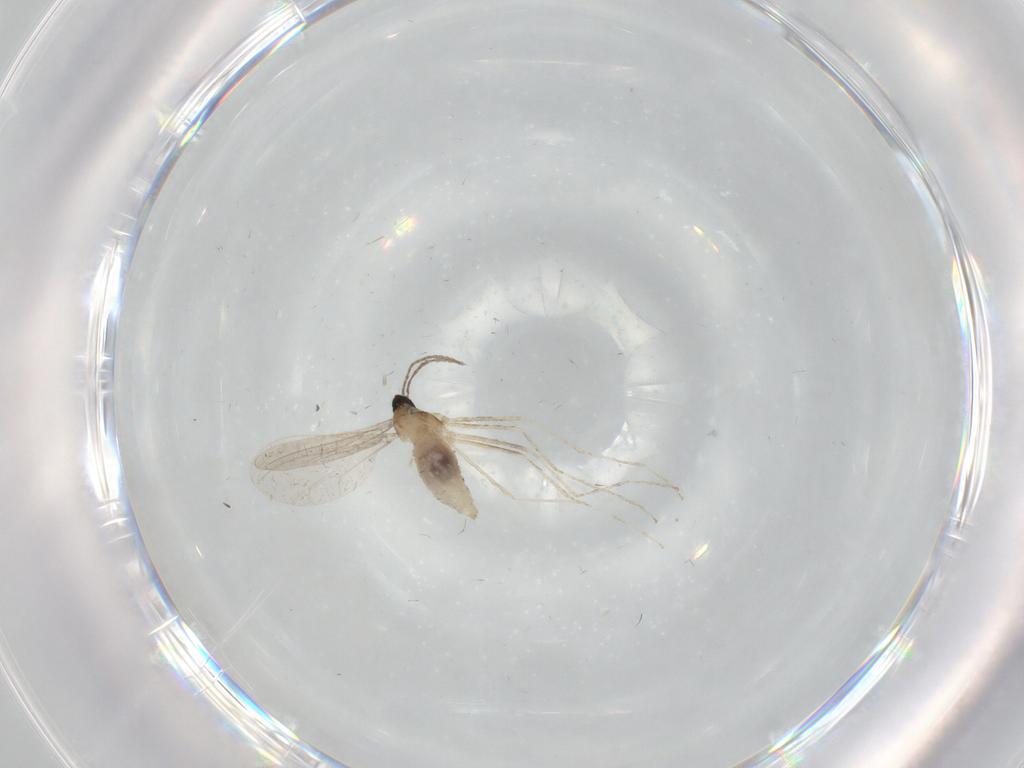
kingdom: Animalia
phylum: Arthropoda
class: Insecta
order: Diptera
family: Cecidomyiidae
